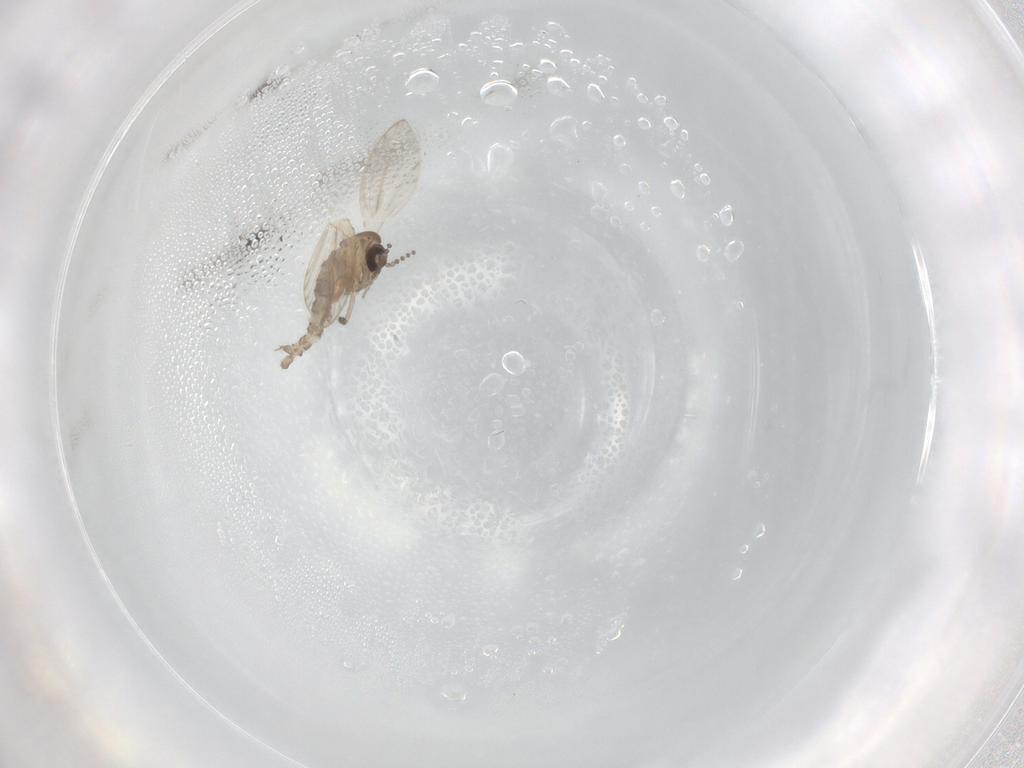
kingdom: Animalia
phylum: Arthropoda
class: Insecta
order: Diptera
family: Psychodidae
